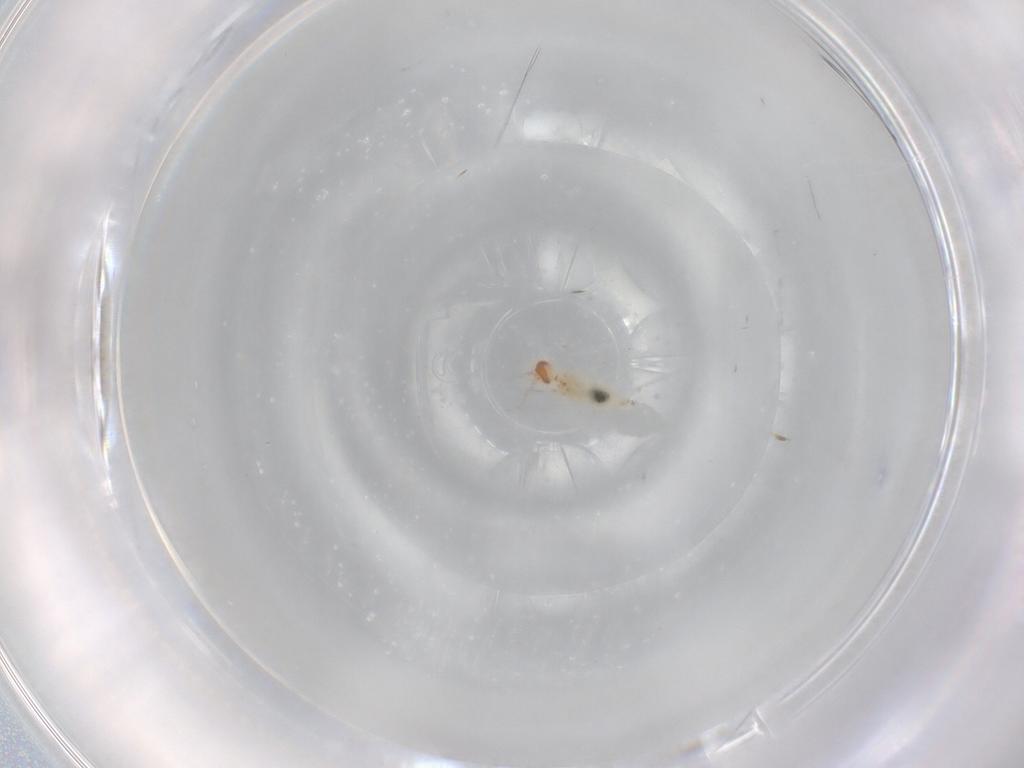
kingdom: Animalia
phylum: Arthropoda
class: Insecta
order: Diptera
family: Cecidomyiidae
